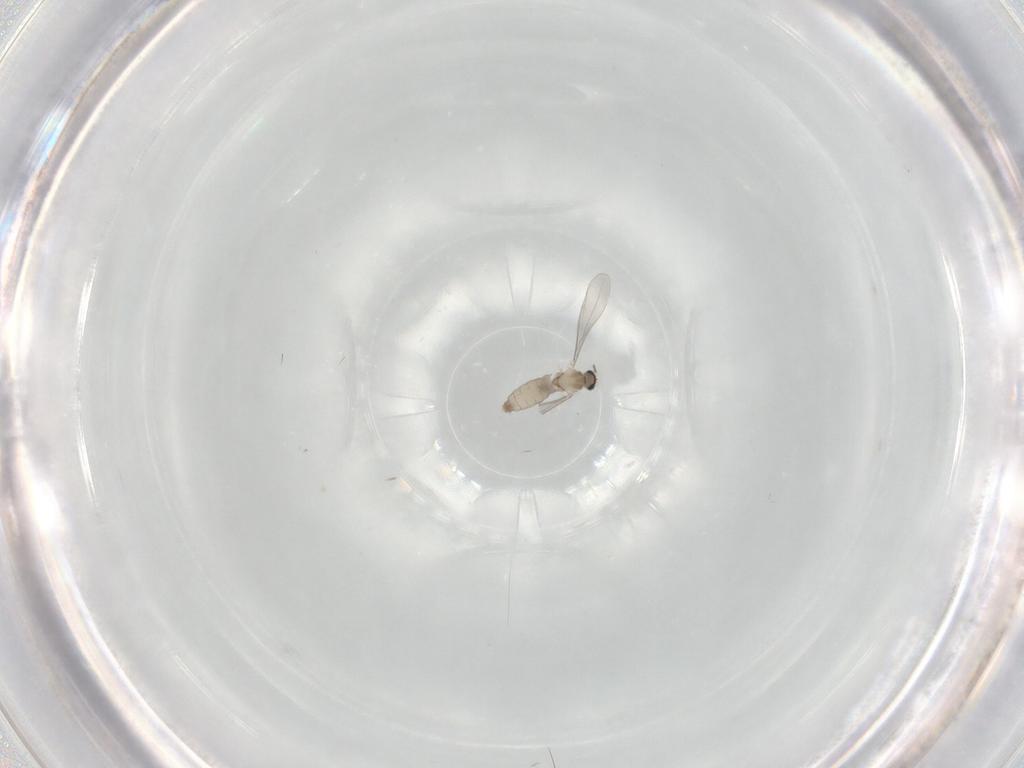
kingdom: Animalia
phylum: Arthropoda
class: Insecta
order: Diptera
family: Cecidomyiidae
